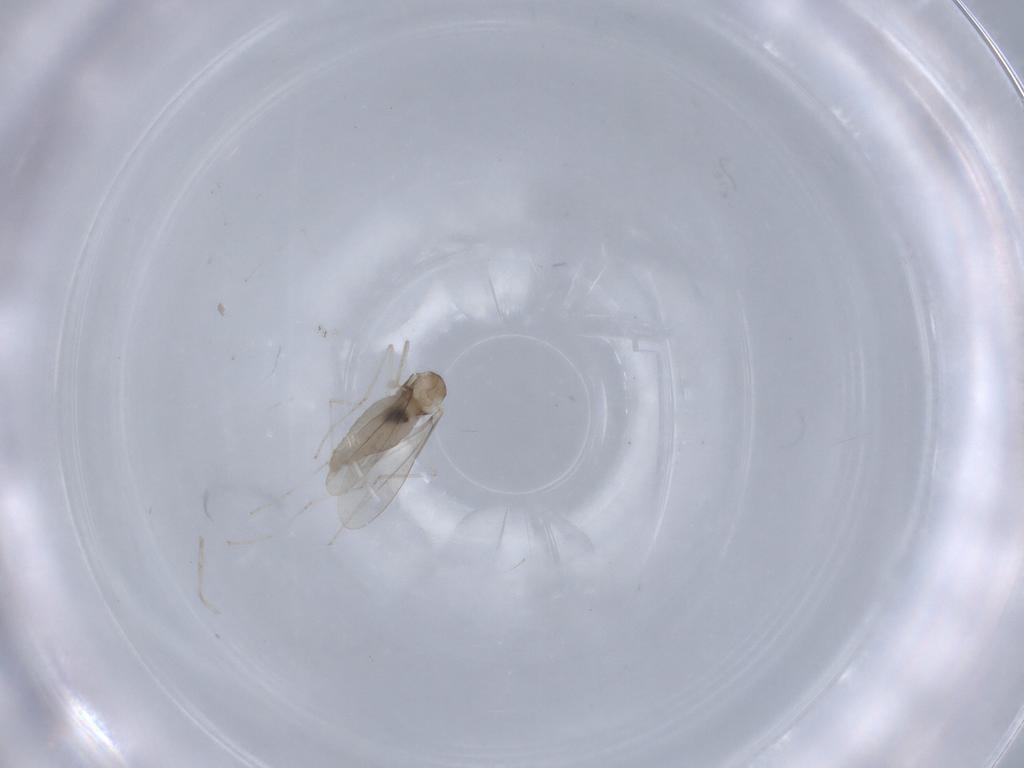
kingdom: Animalia
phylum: Arthropoda
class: Insecta
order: Diptera
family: Cecidomyiidae
